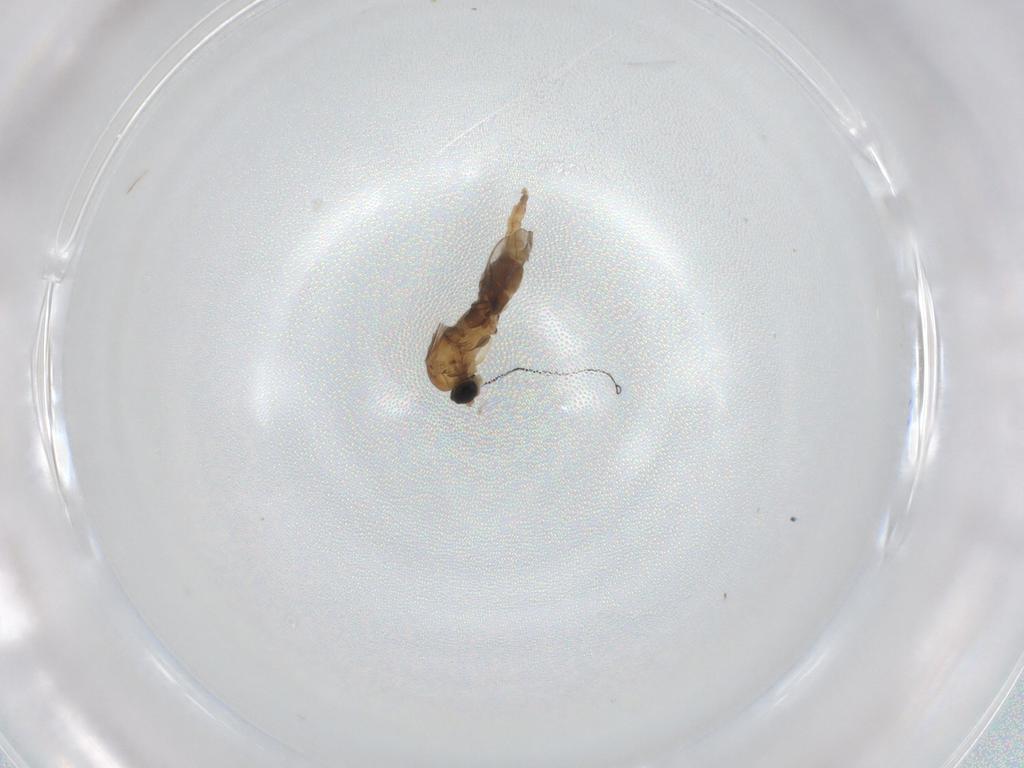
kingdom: Animalia
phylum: Arthropoda
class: Insecta
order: Diptera
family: Sciaridae
